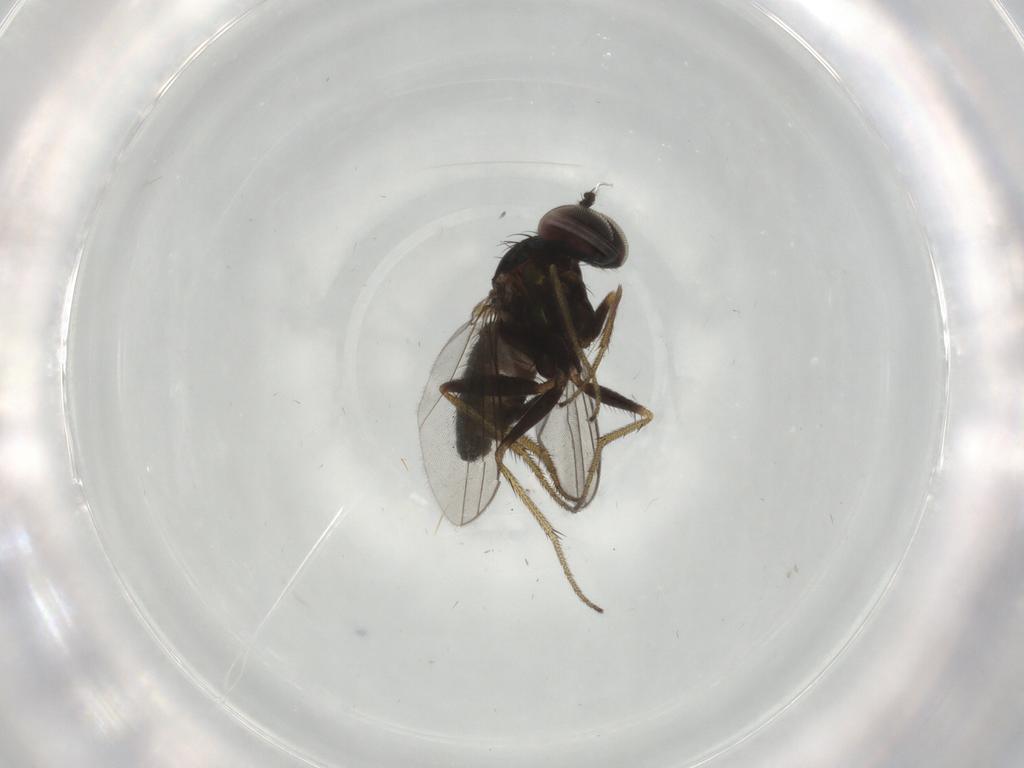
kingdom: Animalia
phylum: Arthropoda
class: Insecta
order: Diptera
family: Dolichopodidae
